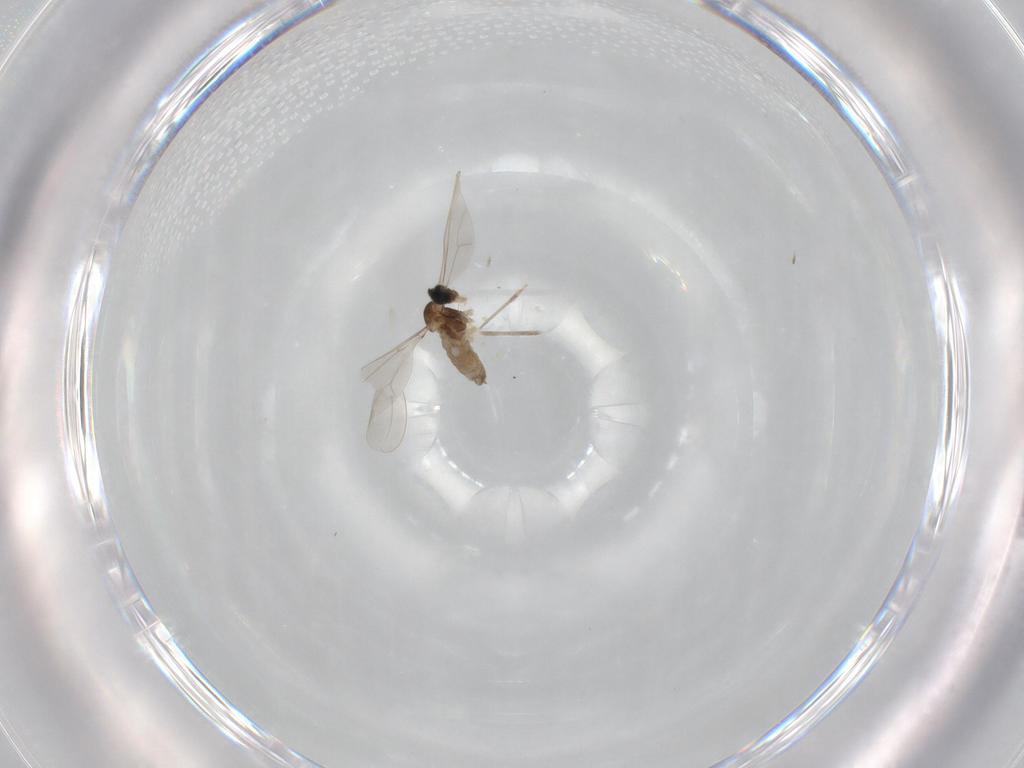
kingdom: Animalia
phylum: Arthropoda
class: Insecta
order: Diptera
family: Cecidomyiidae
